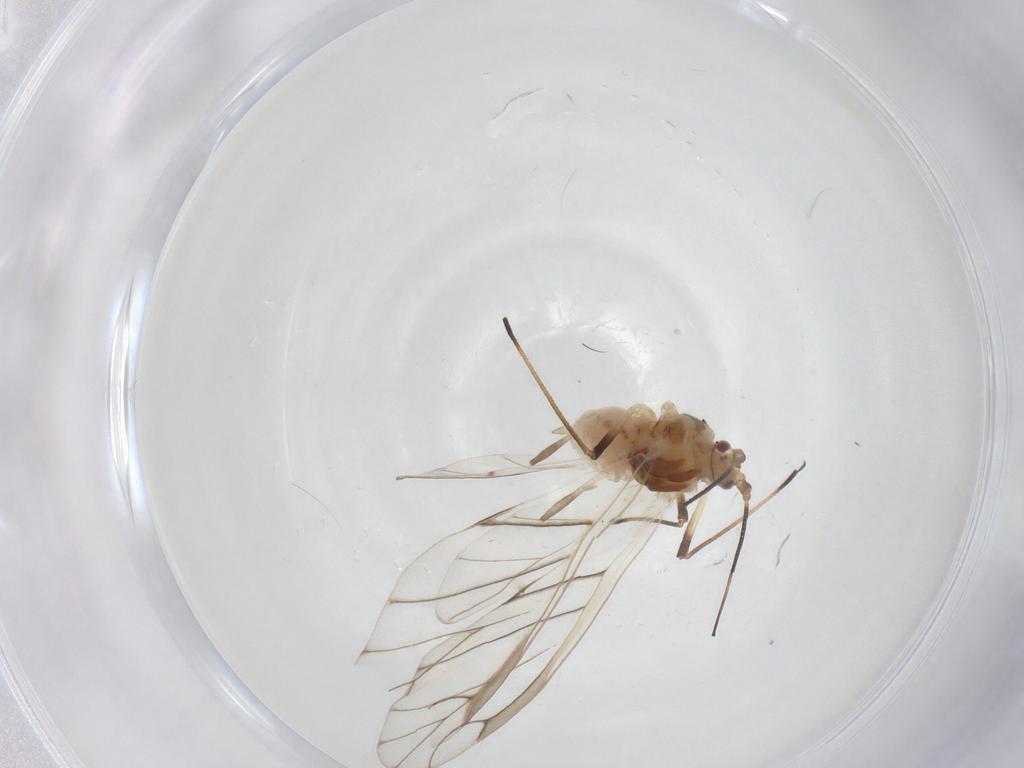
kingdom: Animalia
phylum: Arthropoda
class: Insecta
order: Hemiptera
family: Aphididae
